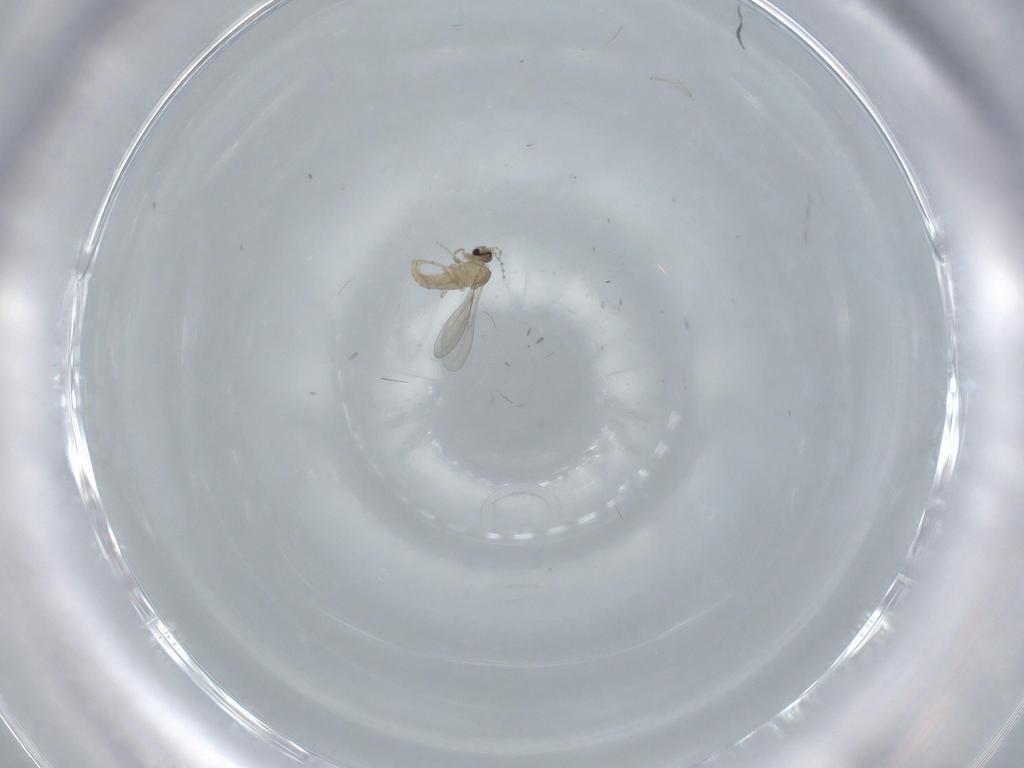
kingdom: Animalia
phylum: Arthropoda
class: Insecta
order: Diptera
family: Cecidomyiidae
